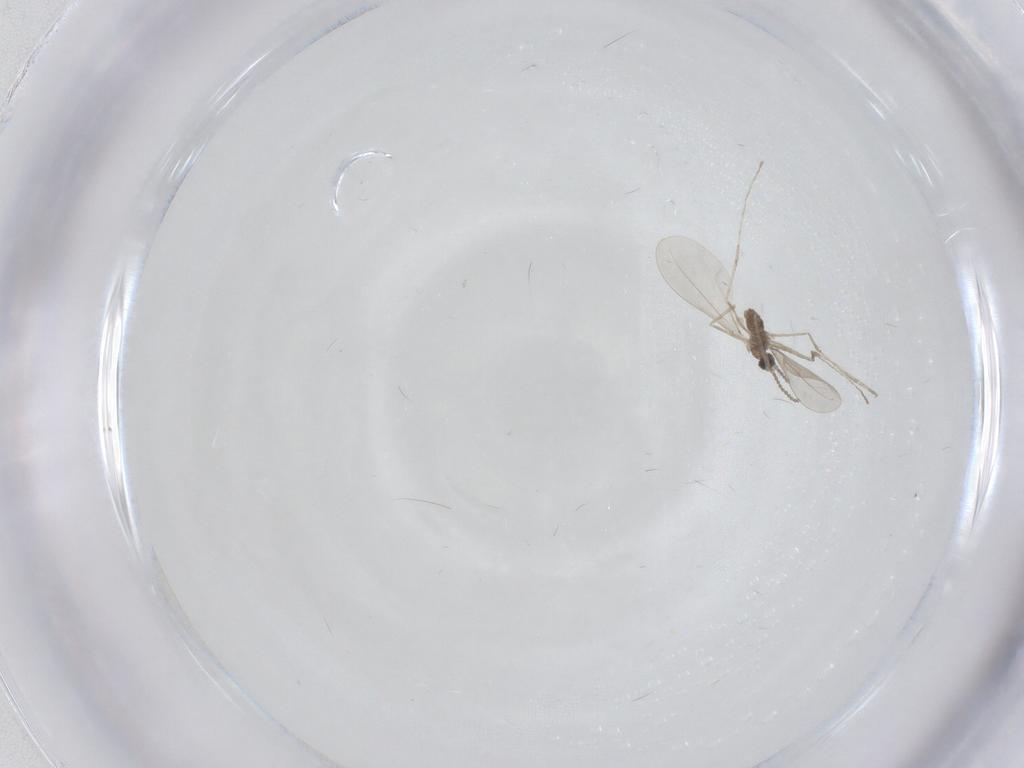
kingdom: Animalia
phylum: Arthropoda
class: Insecta
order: Diptera
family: Cecidomyiidae
